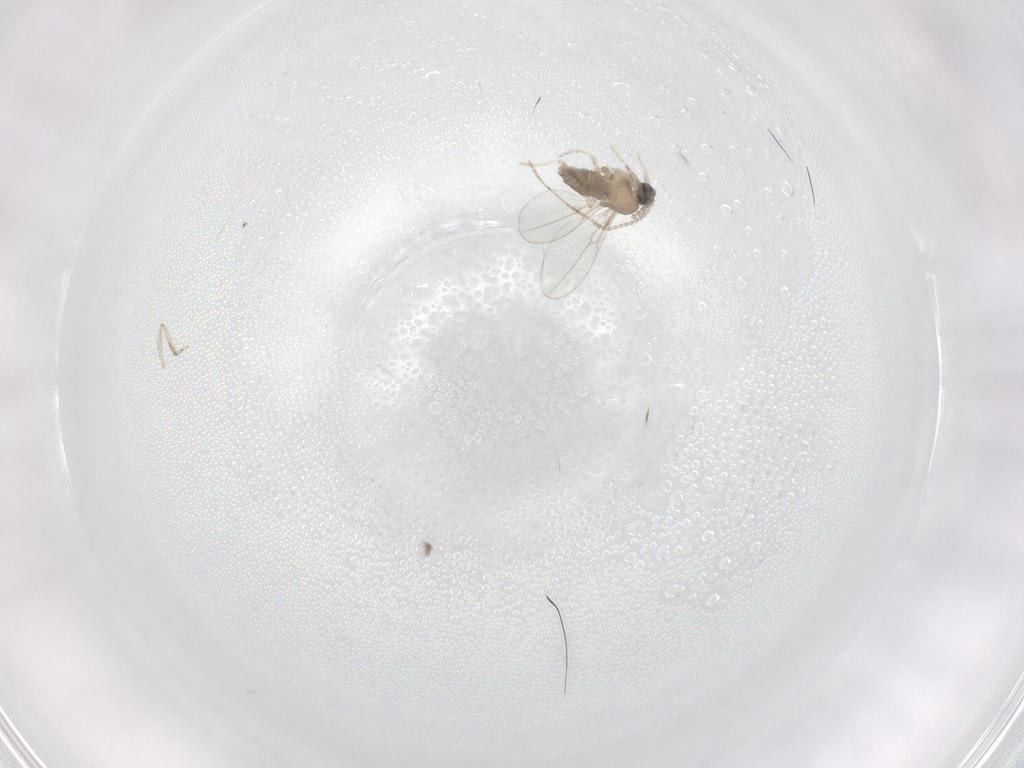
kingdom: Animalia
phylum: Arthropoda
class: Insecta
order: Diptera
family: Cecidomyiidae
